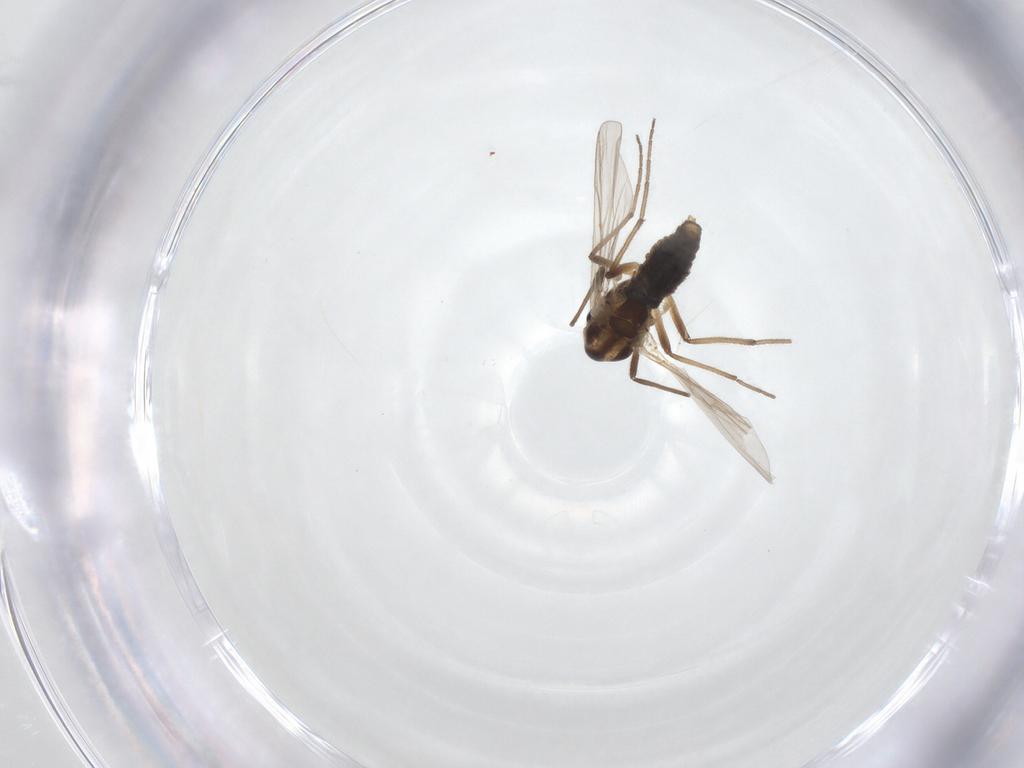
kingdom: Animalia
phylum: Arthropoda
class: Insecta
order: Diptera
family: Chironomidae
